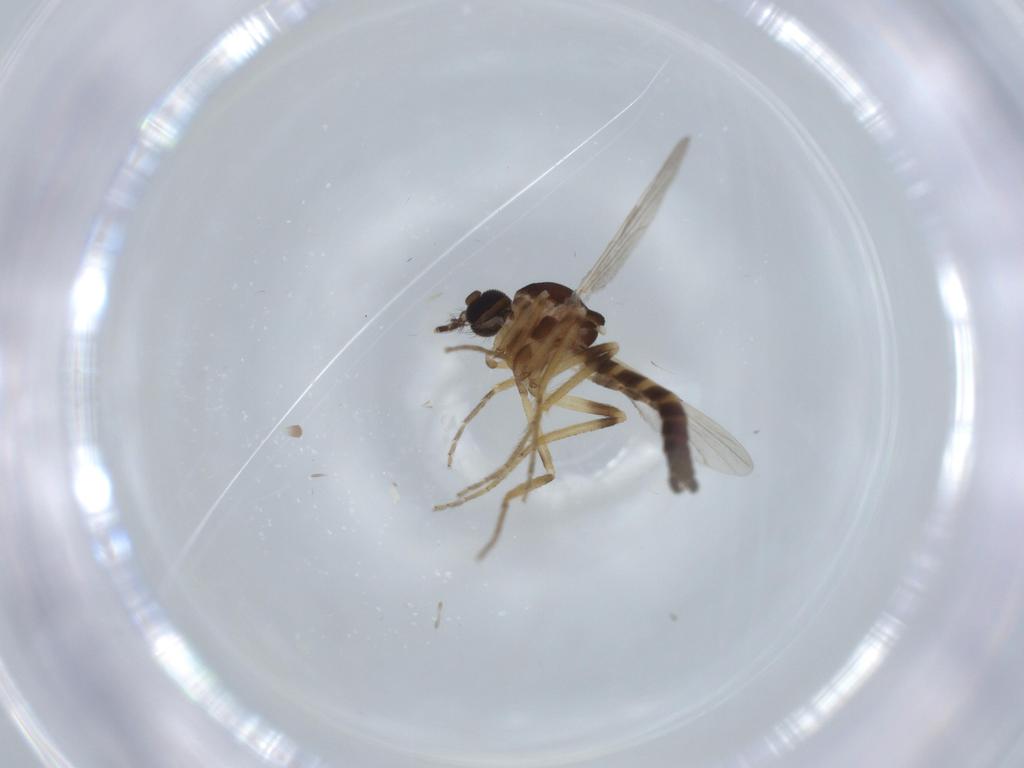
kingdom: Animalia
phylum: Arthropoda
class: Insecta
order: Diptera
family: Ceratopogonidae
